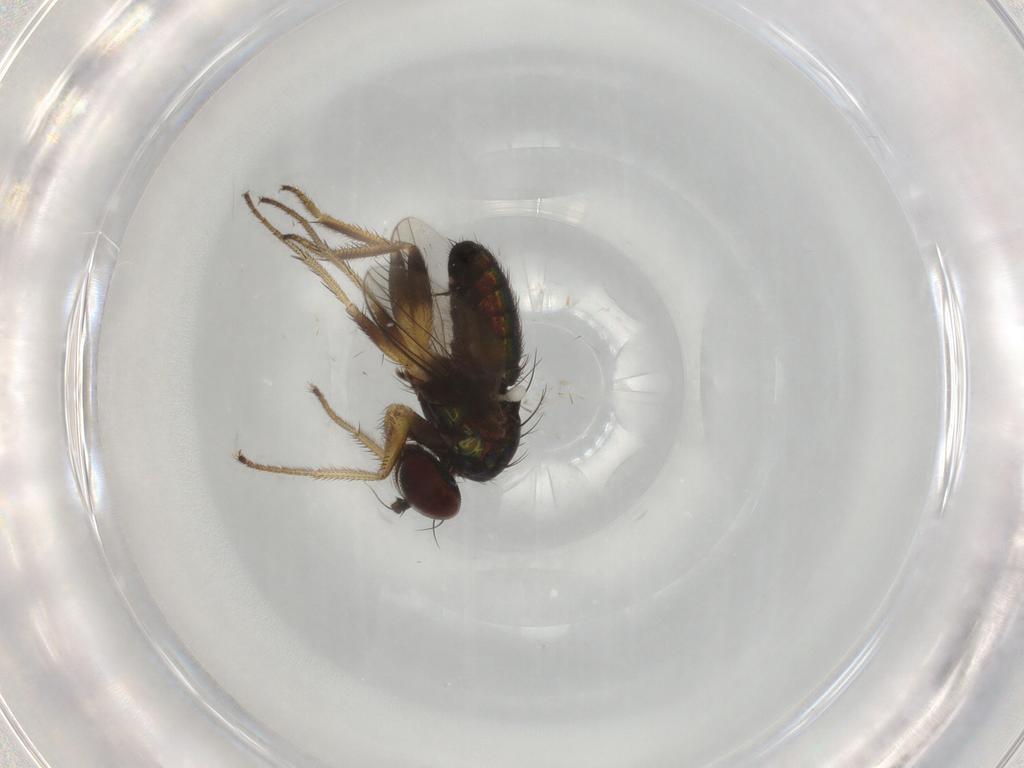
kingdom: Animalia
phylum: Arthropoda
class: Insecta
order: Diptera
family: Dolichopodidae
